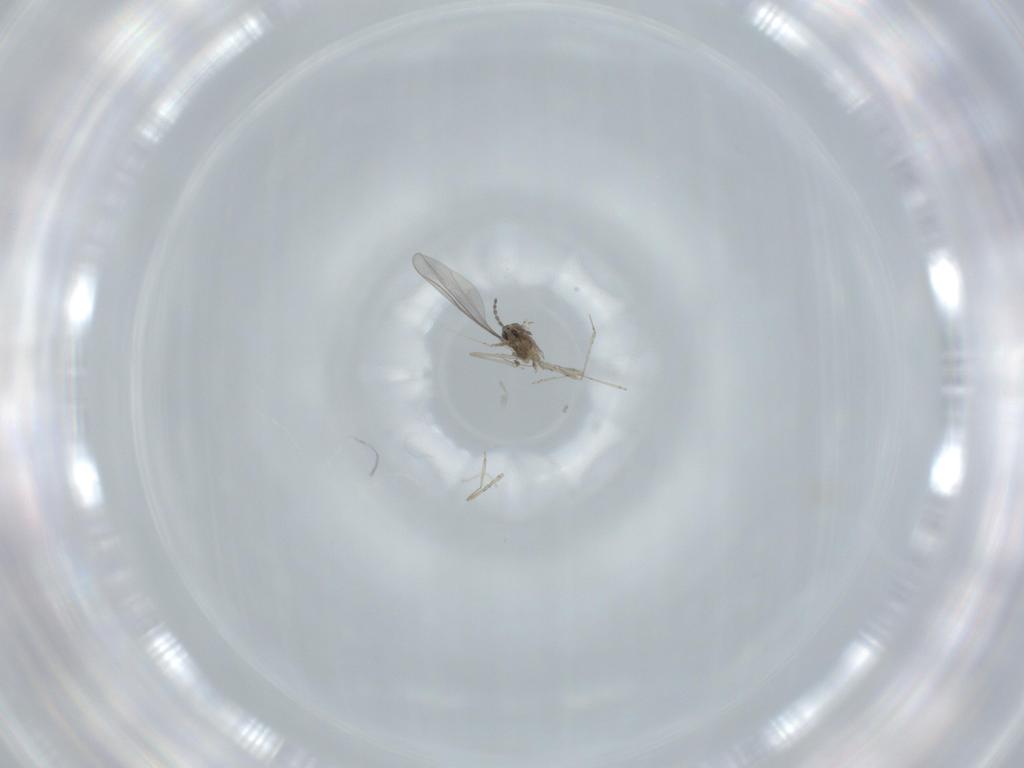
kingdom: Animalia
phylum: Arthropoda
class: Insecta
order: Diptera
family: Cecidomyiidae
